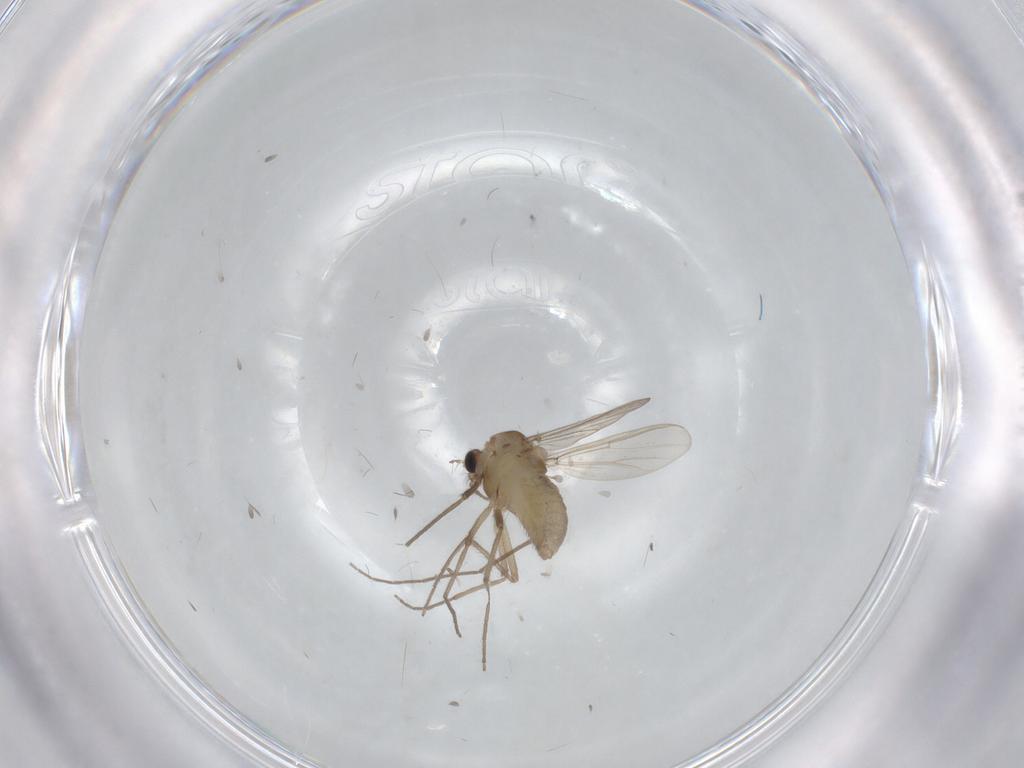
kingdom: Animalia
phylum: Arthropoda
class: Insecta
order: Diptera
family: Chironomidae
